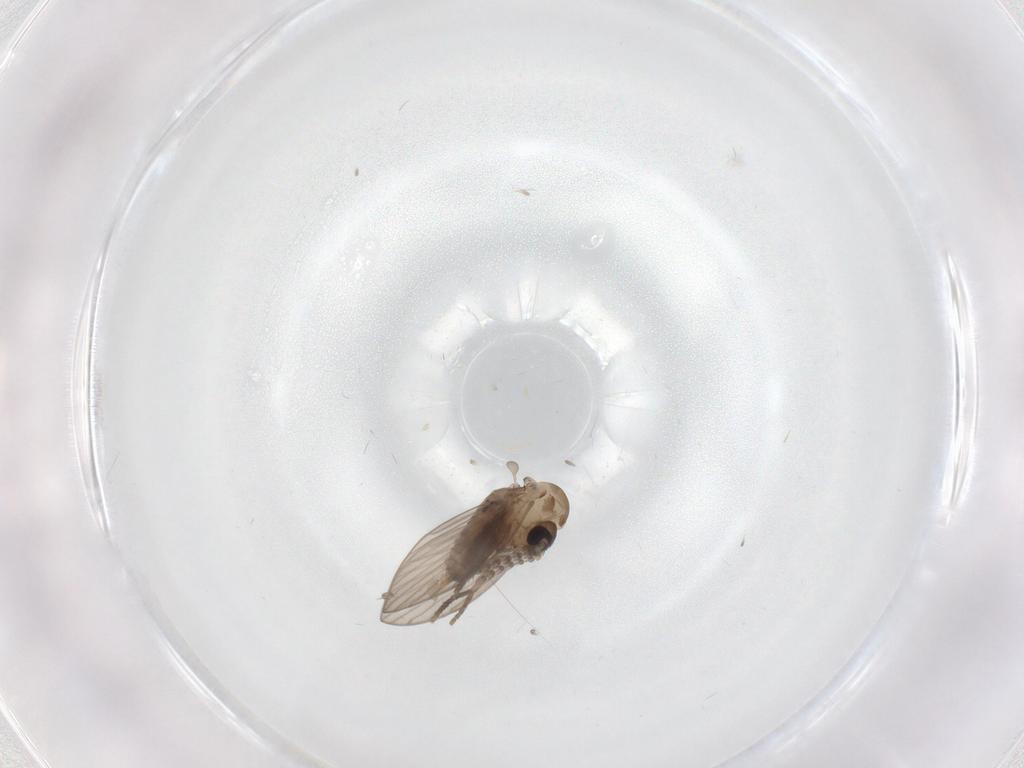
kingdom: Animalia
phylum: Arthropoda
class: Insecta
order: Diptera
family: Psychodidae
